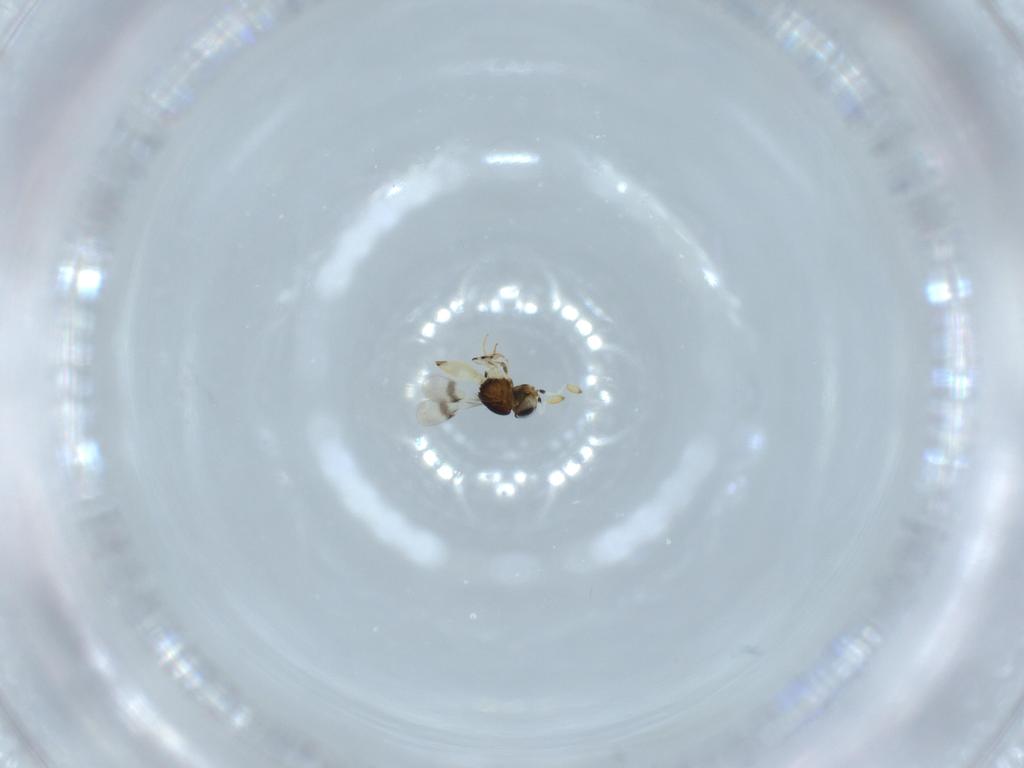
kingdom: Animalia
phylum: Arthropoda
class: Insecta
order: Hymenoptera
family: Scelionidae
